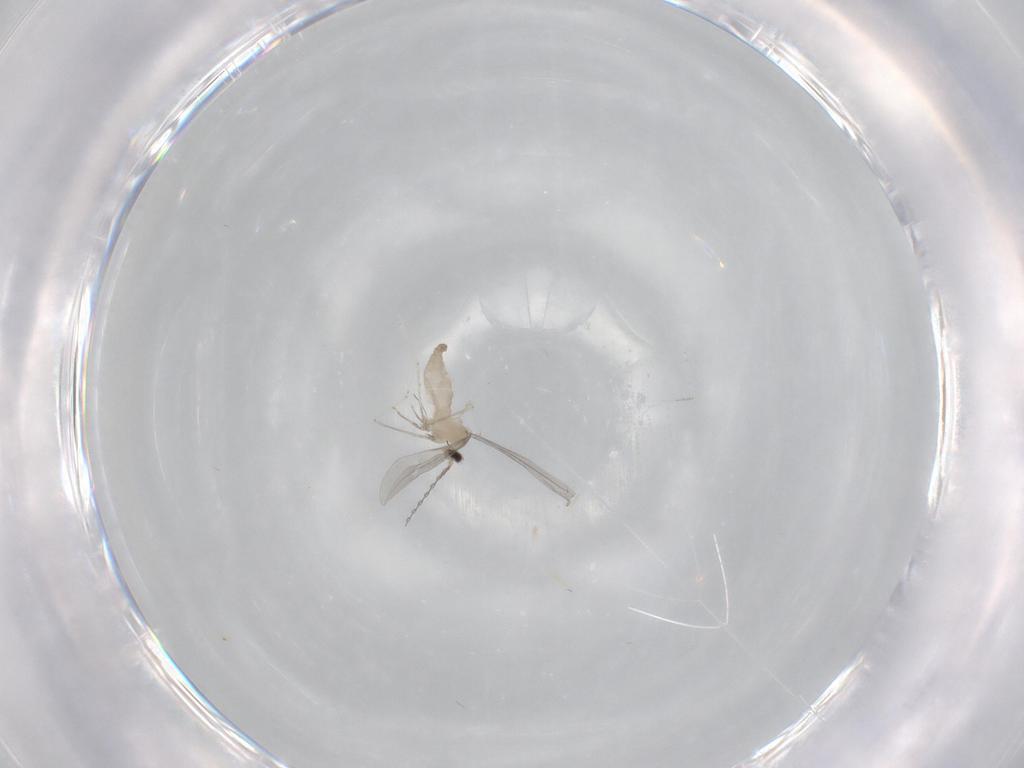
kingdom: Animalia
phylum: Arthropoda
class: Insecta
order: Diptera
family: Cecidomyiidae
